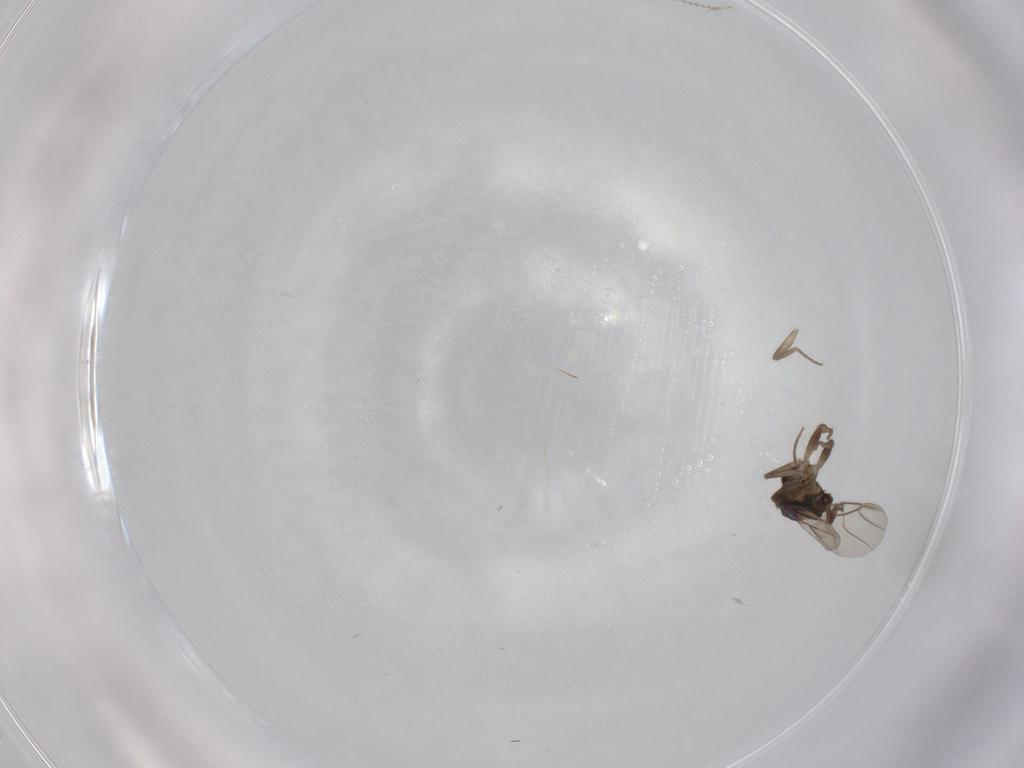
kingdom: Animalia
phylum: Arthropoda
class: Insecta
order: Diptera
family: Phoridae
